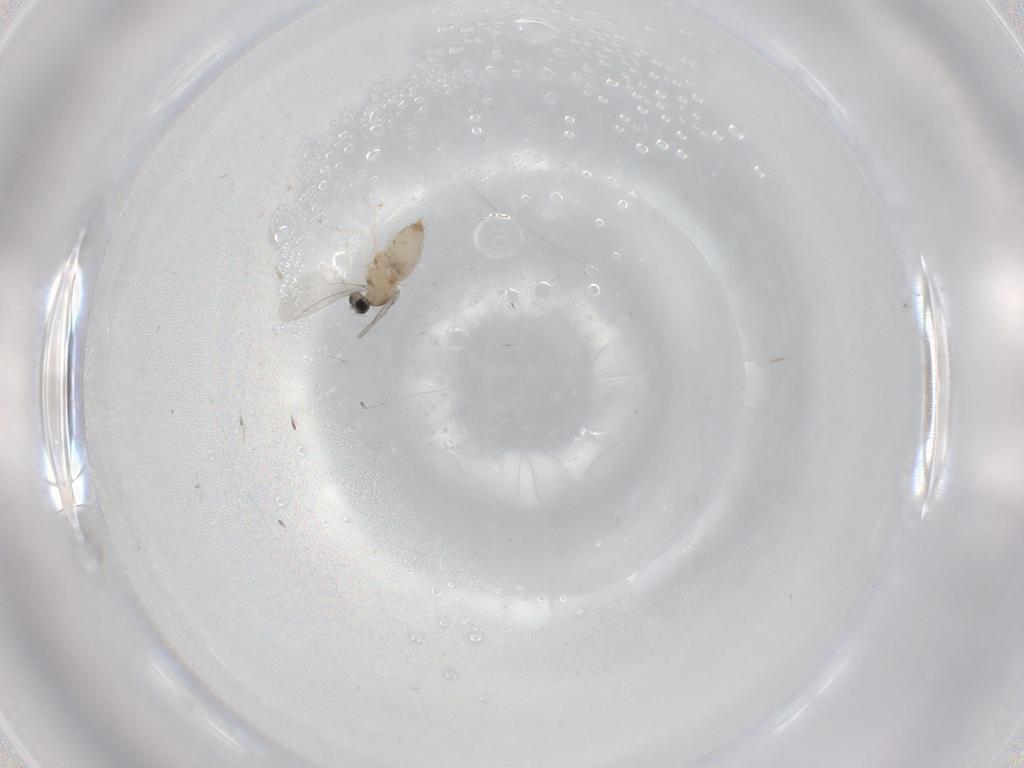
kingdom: Animalia
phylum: Arthropoda
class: Insecta
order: Diptera
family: Cecidomyiidae
